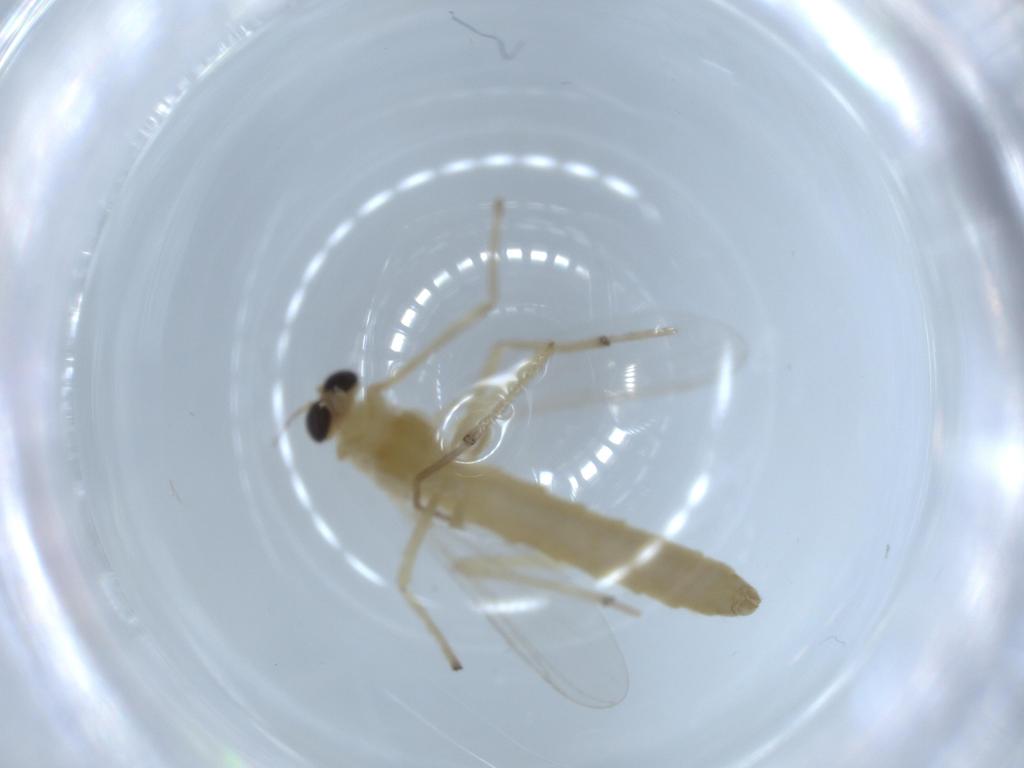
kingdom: Animalia
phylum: Arthropoda
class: Insecta
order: Diptera
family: Chironomidae
